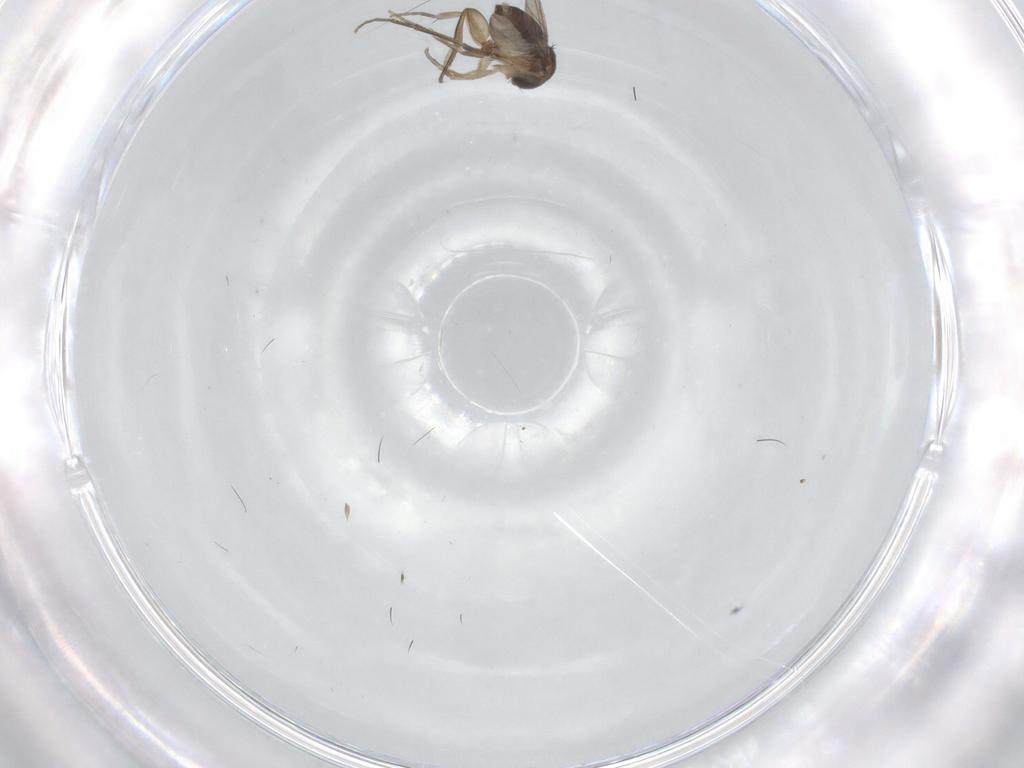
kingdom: Animalia
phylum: Arthropoda
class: Insecta
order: Diptera
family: Phoridae
